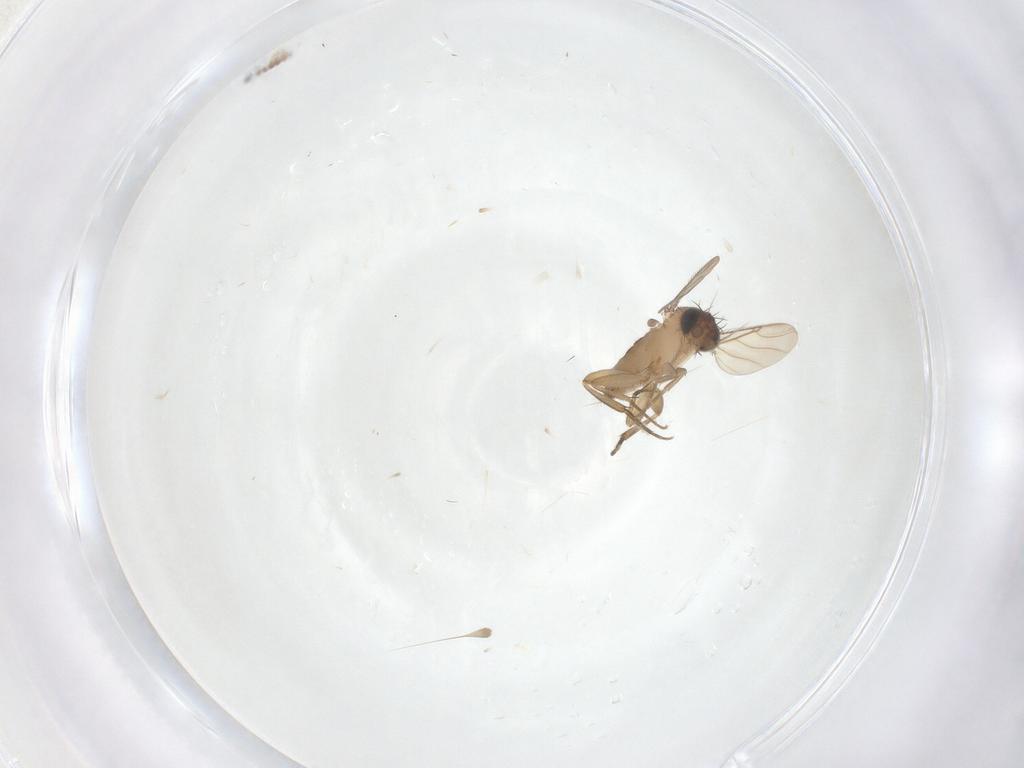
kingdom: Animalia
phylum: Arthropoda
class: Insecta
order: Diptera
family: Phoridae
